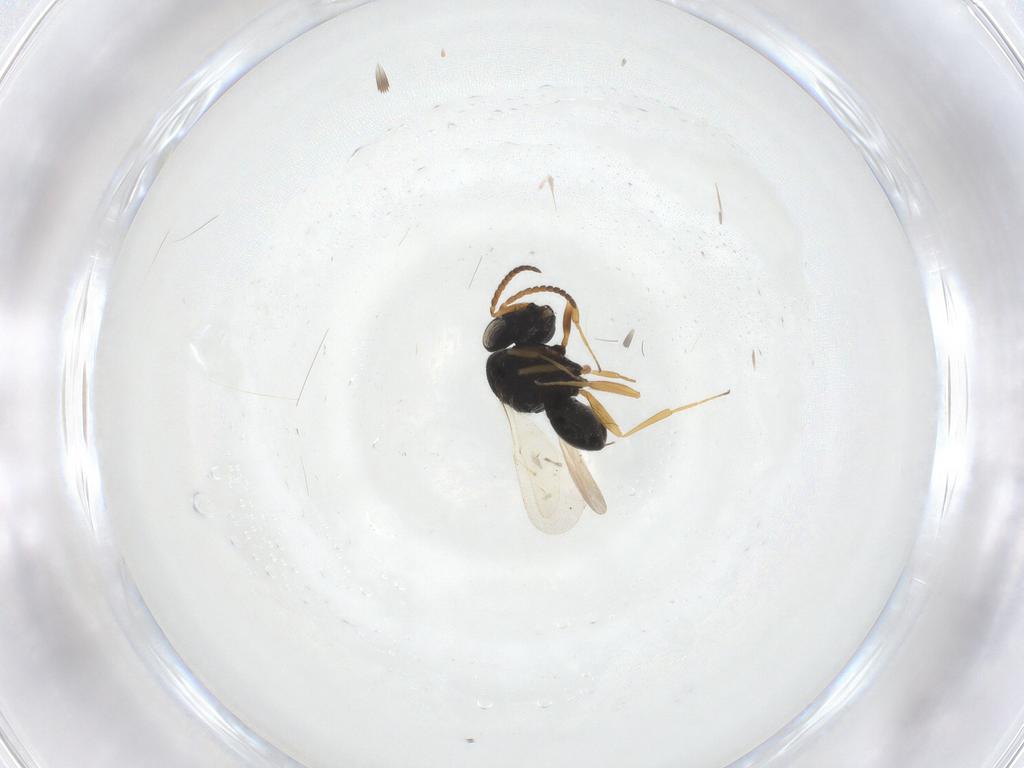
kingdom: Animalia
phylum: Arthropoda
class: Insecta
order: Hymenoptera
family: Scelionidae
